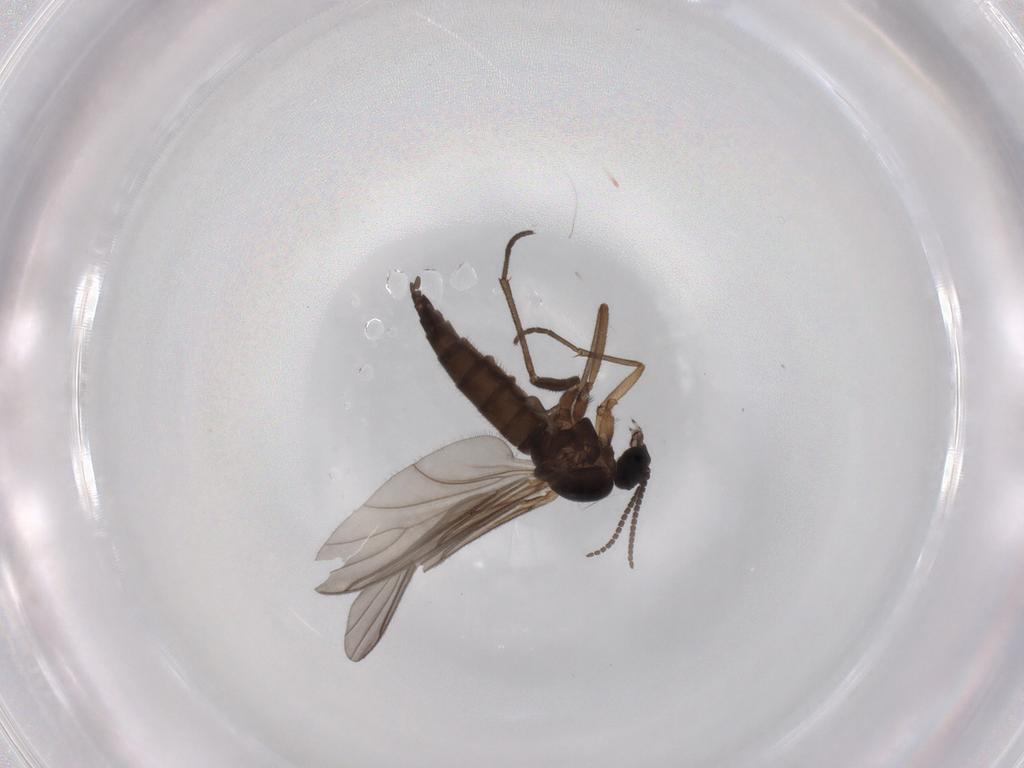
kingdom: Animalia
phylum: Arthropoda
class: Insecta
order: Diptera
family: Sciaridae
